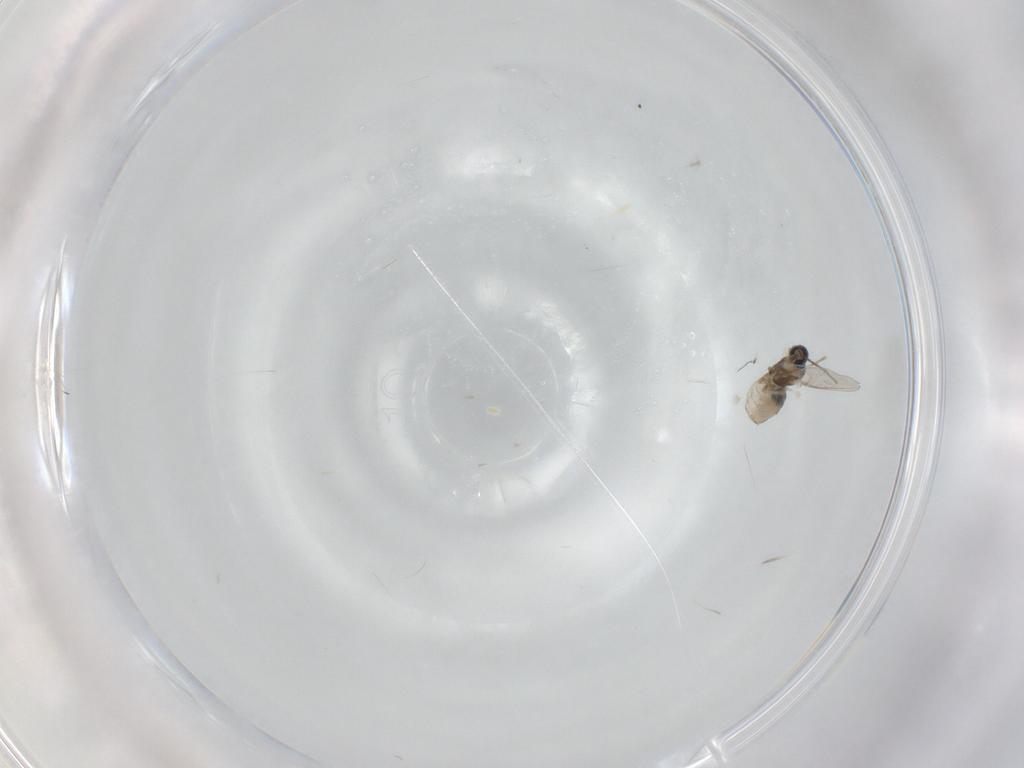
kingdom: Animalia
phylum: Arthropoda
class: Insecta
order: Diptera
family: Cecidomyiidae
